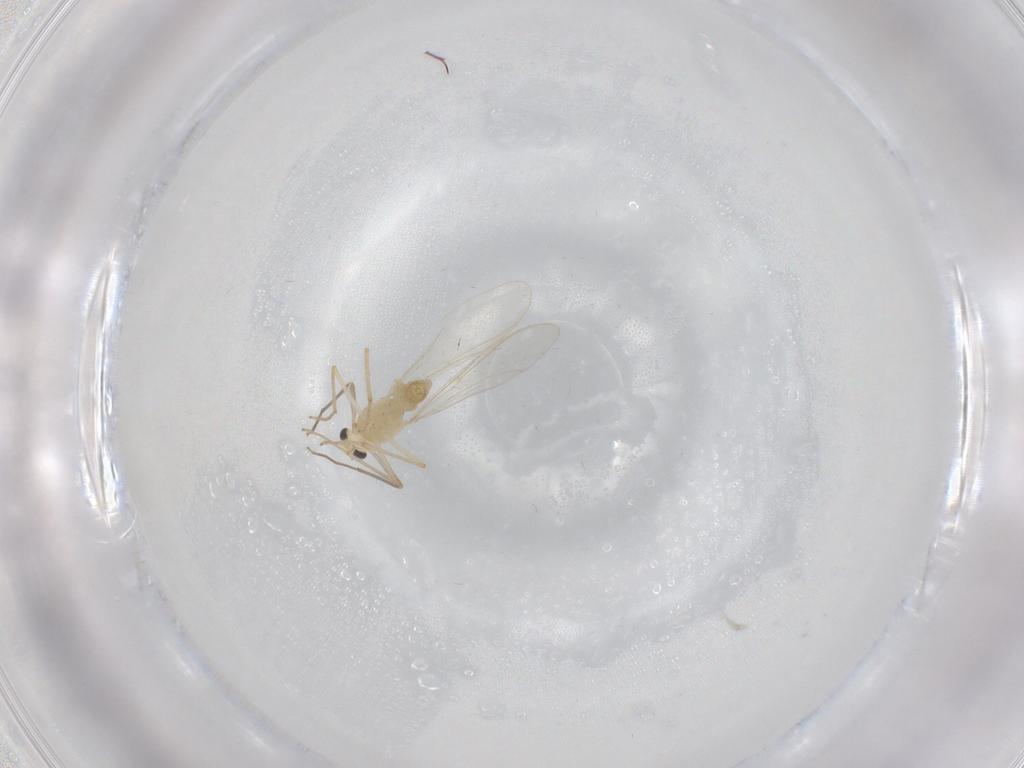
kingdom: Animalia
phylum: Arthropoda
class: Insecta
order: Diptera
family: Chironomidae
